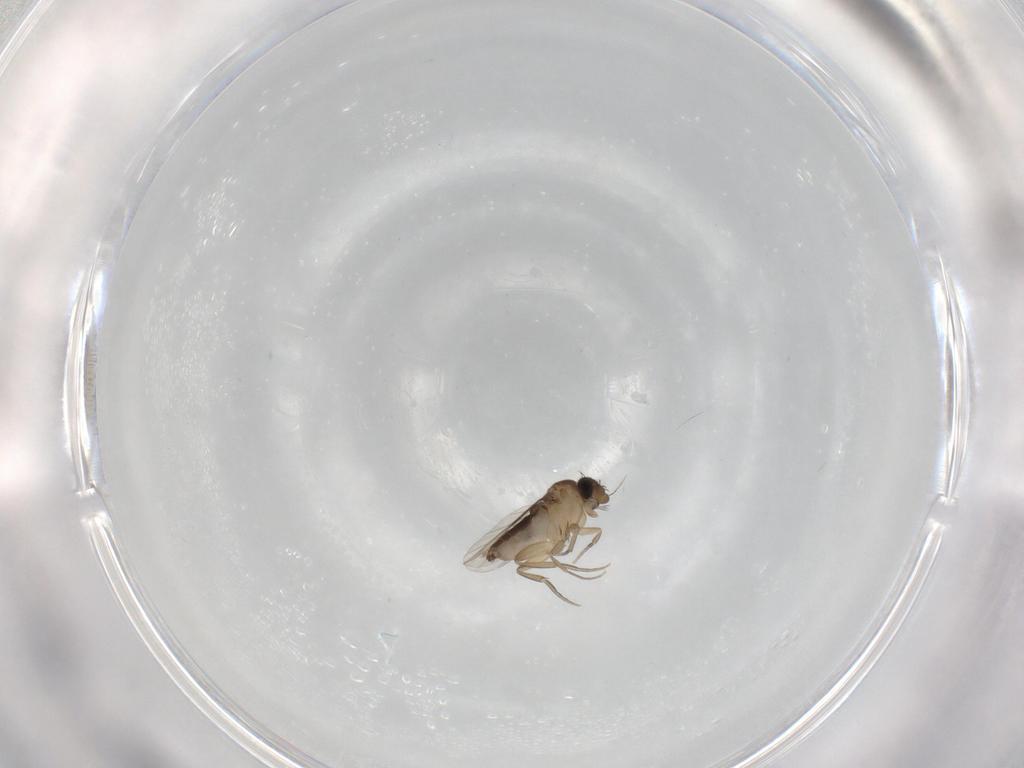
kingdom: Animalia
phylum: Arthropoda
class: Insecta
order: Diptera
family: Phoridae
